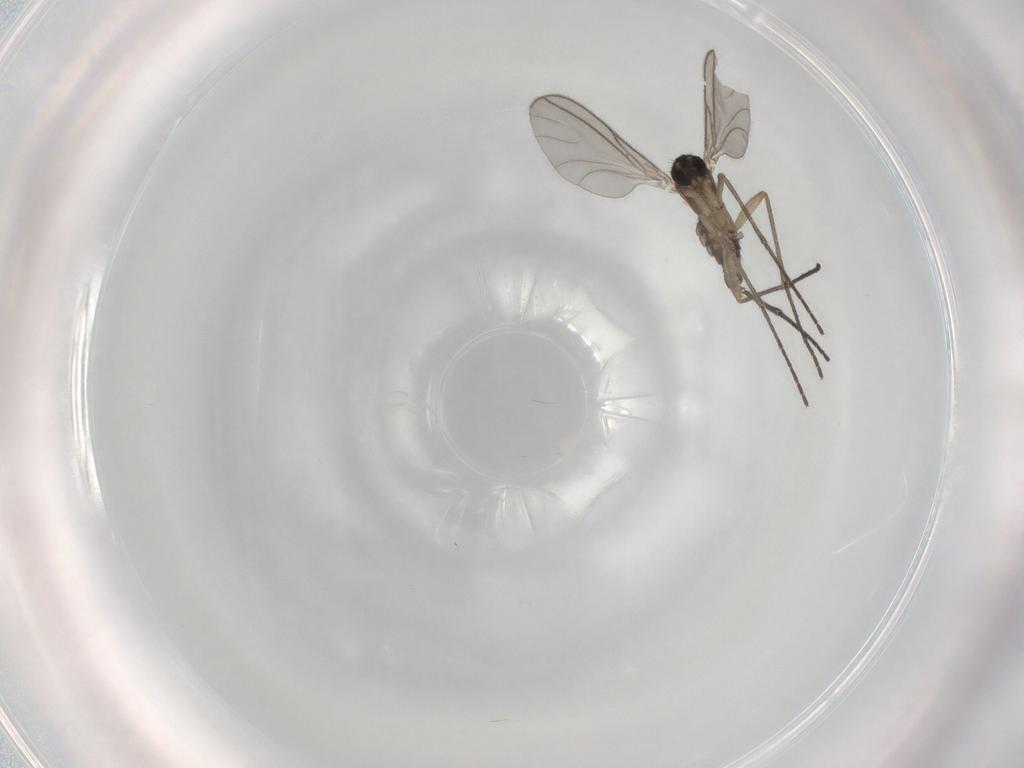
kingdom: Animalia
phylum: Arthropoda
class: Insecta
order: Diptera
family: Sciaridae
